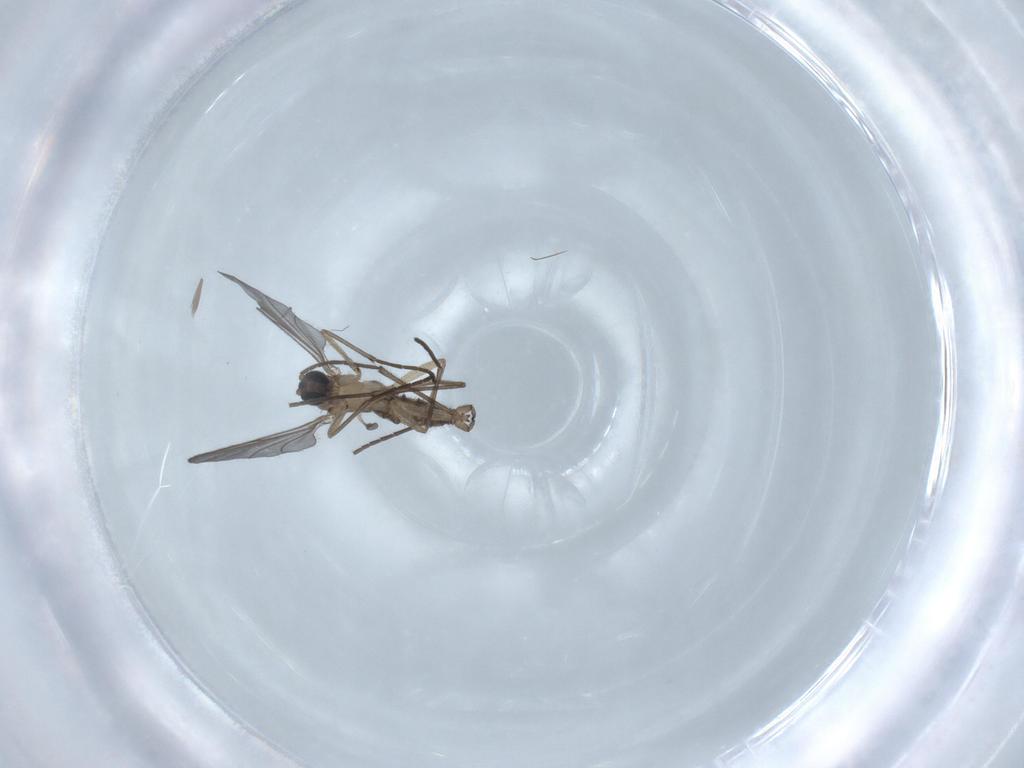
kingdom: Animalia
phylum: Arthropoda
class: Insecta
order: Diptera
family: Sciaridae
